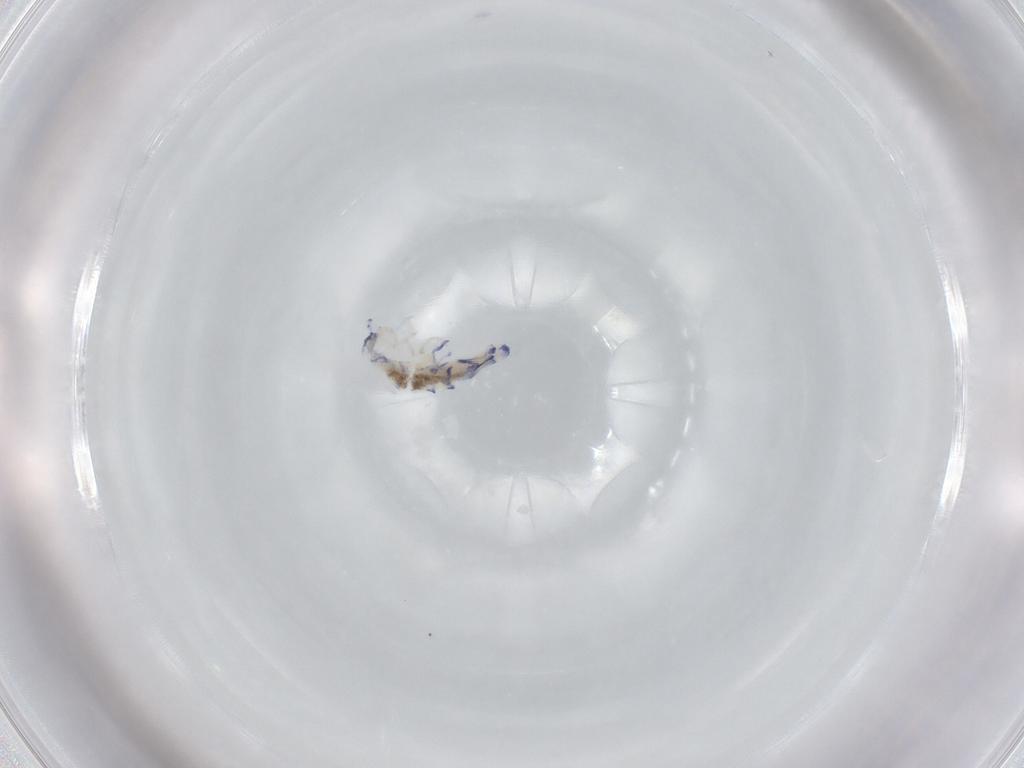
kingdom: Animalia
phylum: Arthropoda
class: Collembola
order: Entomobryomorpha
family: Entomobryidae
